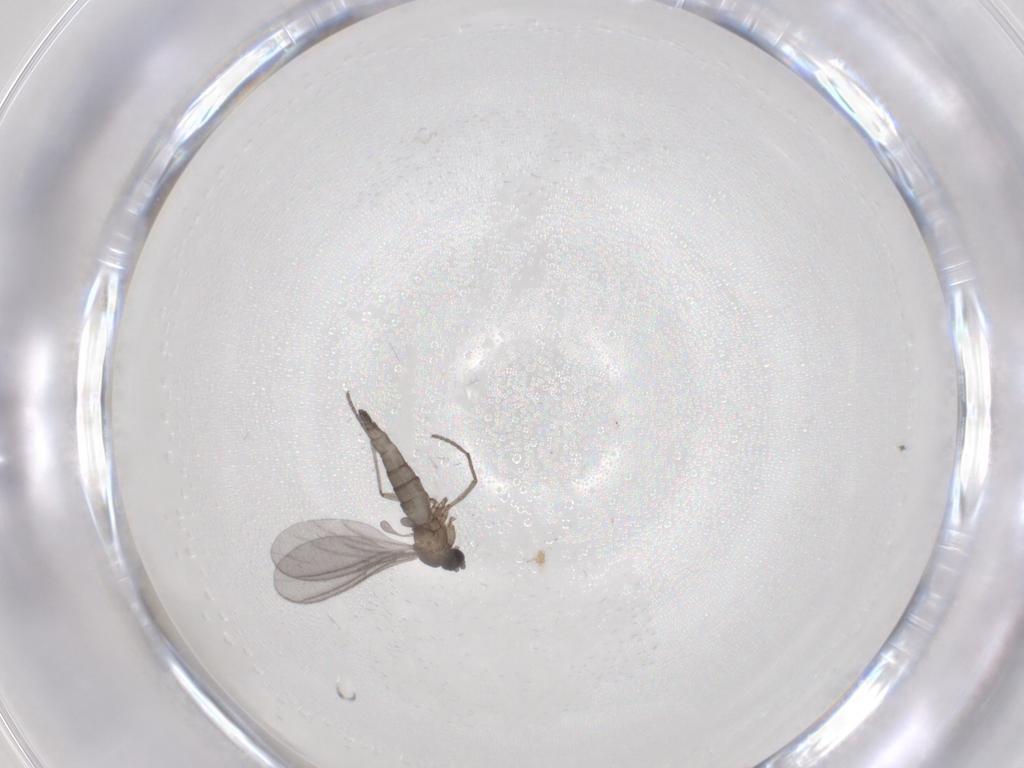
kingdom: Animalia
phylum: Arthropoda
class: Insecta
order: Diptera
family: Sciaridae
